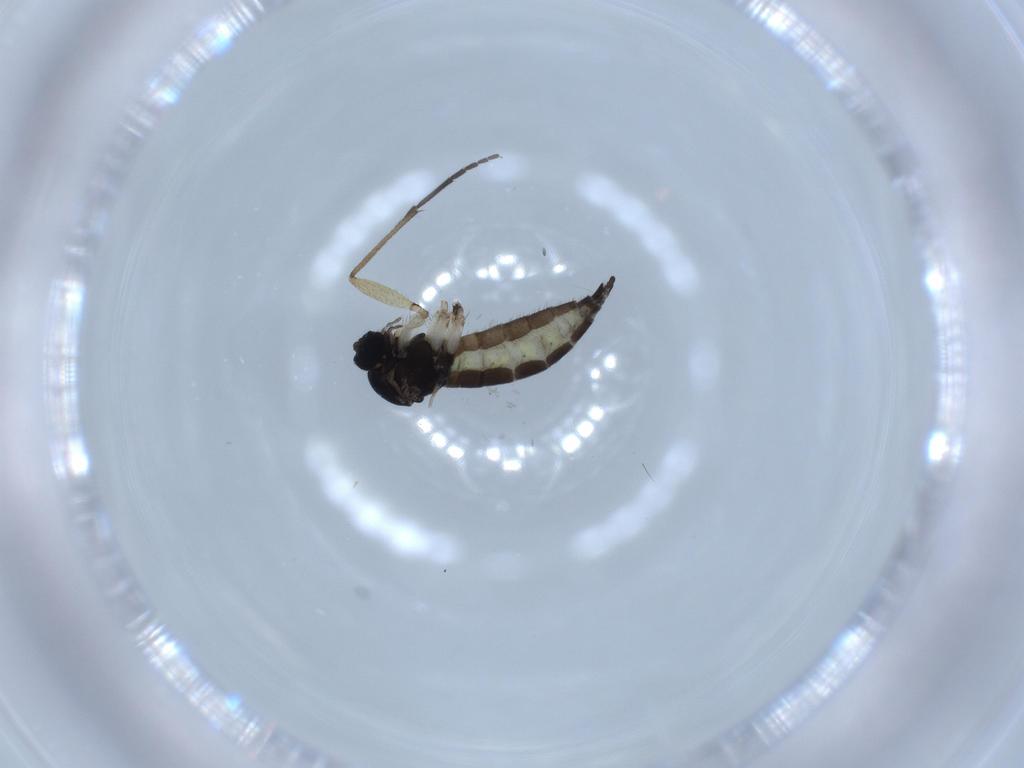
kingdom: Animalia
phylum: Arthropoda
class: Insecta
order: Diptera
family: Sciaridae
